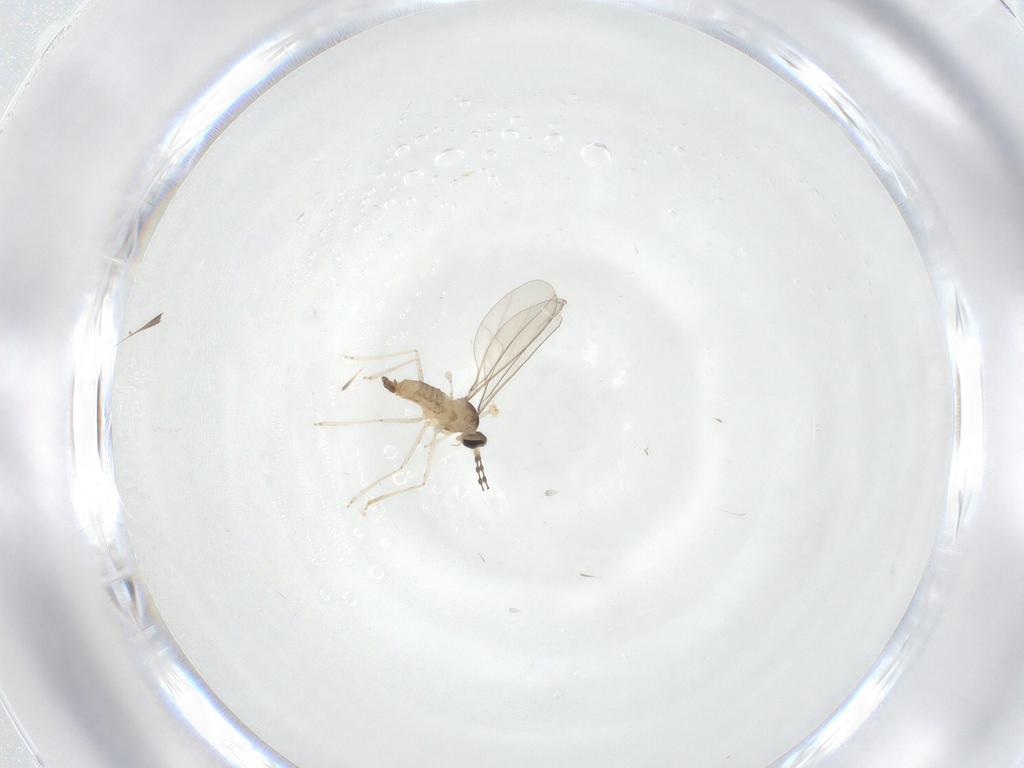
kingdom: Animalia
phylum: Arthropoda
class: Insecta
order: Diptera
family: Cecidomyiidae
